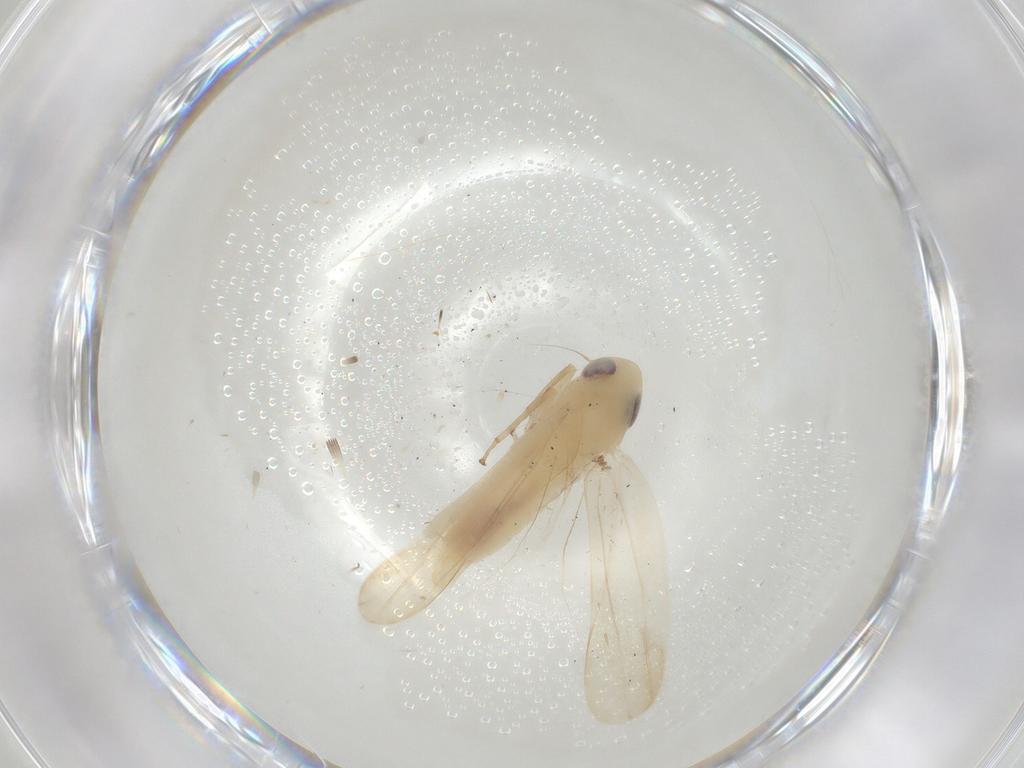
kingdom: Animalia
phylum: Arthropoda
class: Insecta
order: Hemiptera
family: Cicadellidae
